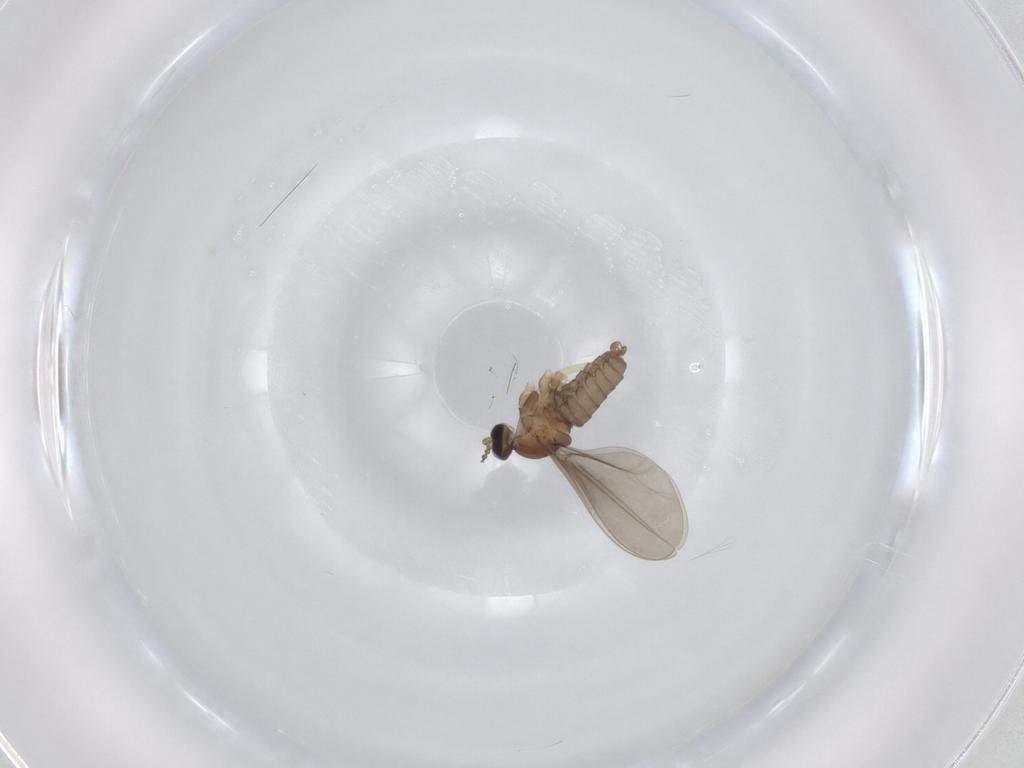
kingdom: Animalia
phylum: Arthropoda
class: Insecta
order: Diptera
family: Cecidomyiidae
